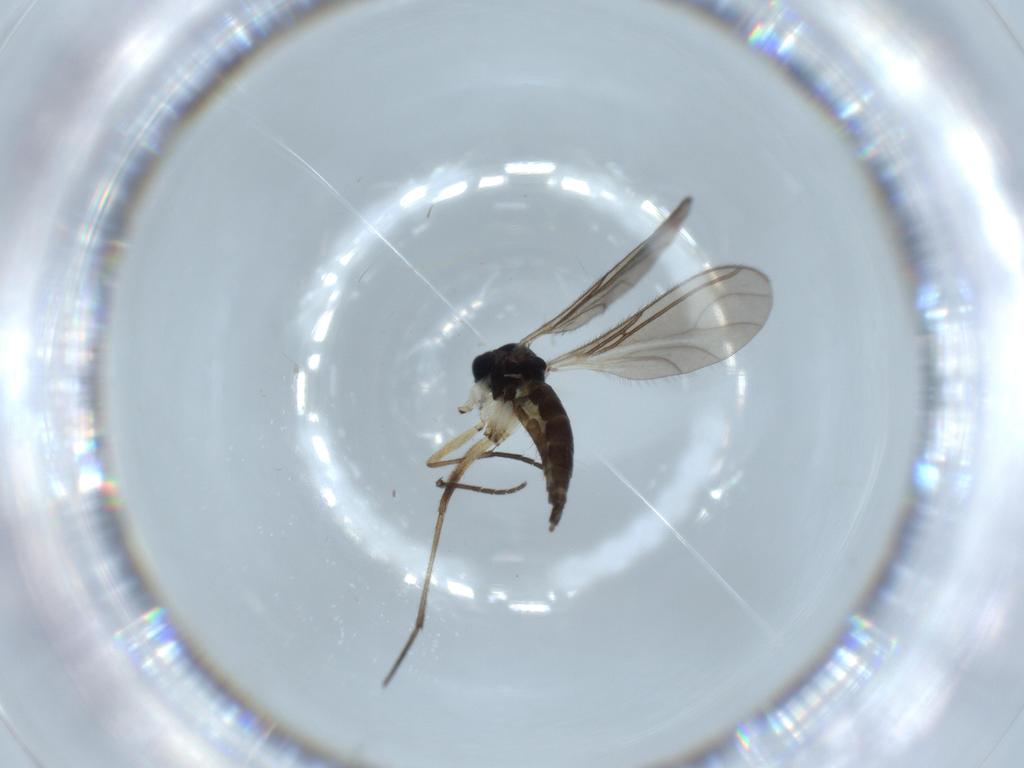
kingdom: Animalia
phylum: Arthropoda
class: Insecta
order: Diptera
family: Sciaridae
